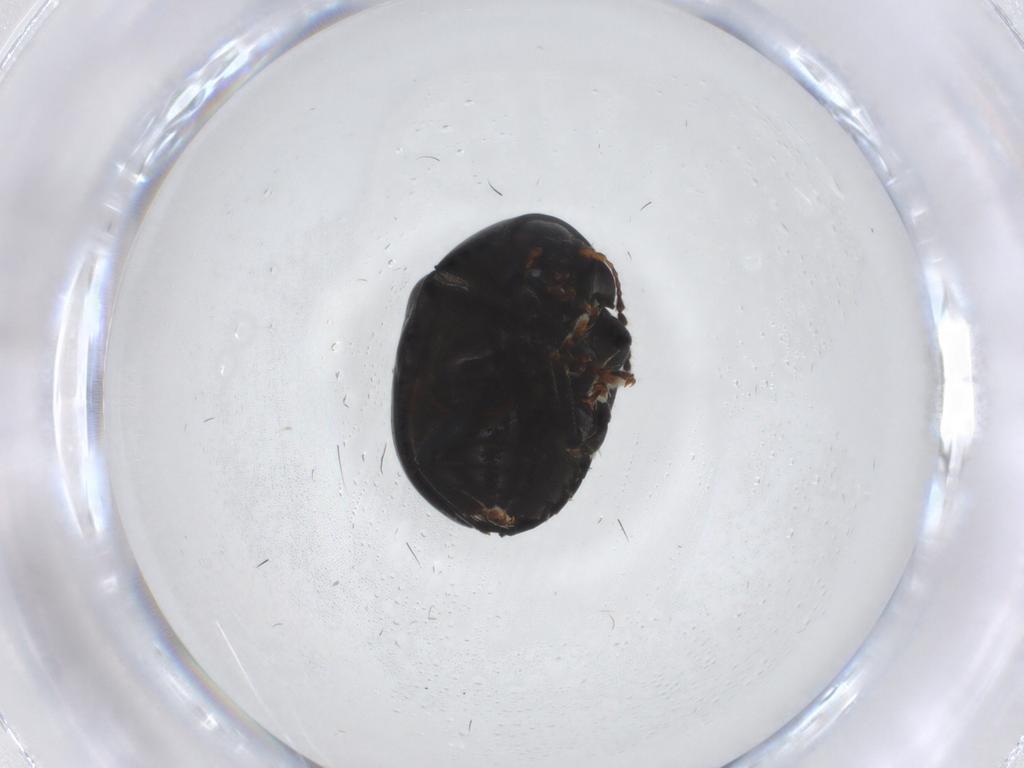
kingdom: Animalia
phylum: Arthropoda
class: Insecta
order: Coleoptera
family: Chrysomelidae
